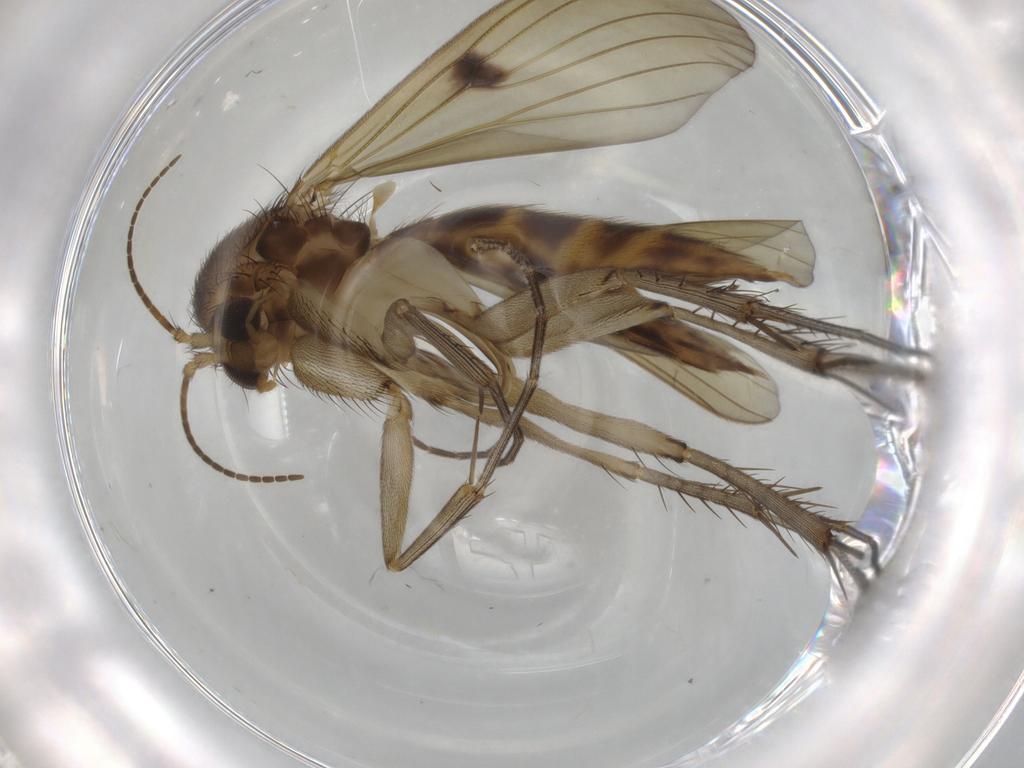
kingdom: Animalia
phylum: Arthropoda
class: Insecta
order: Diptera
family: Mycetophilidae
